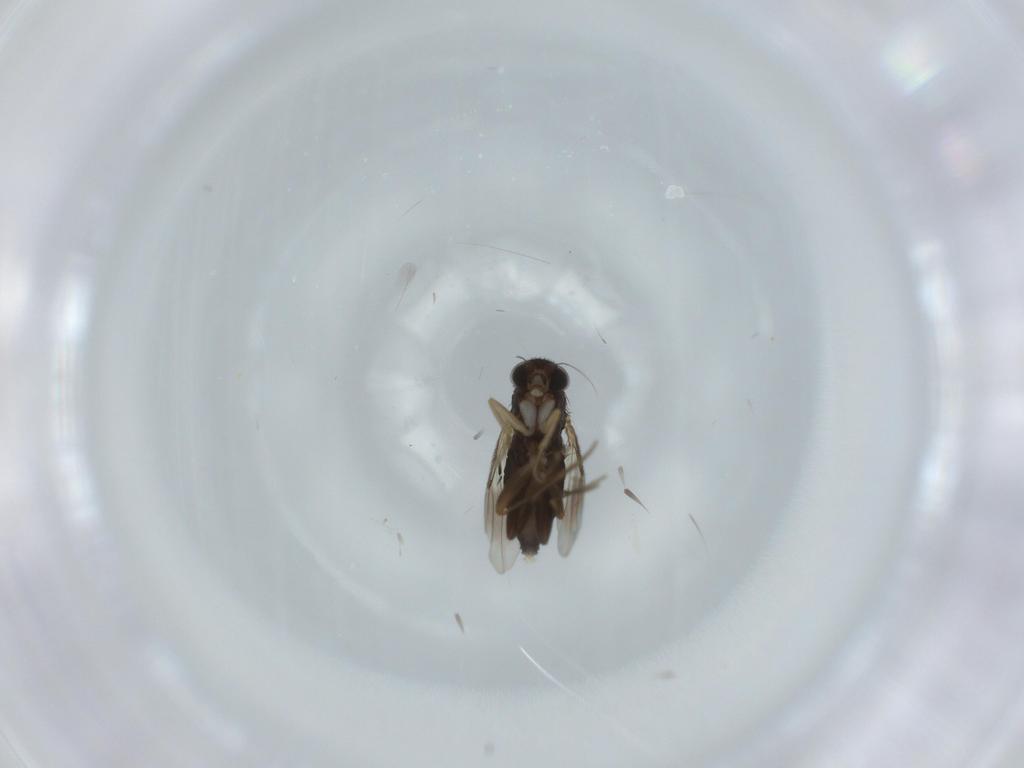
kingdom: Animalia
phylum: Arthropoda
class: Insecta
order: Diptera
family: Phoridae
